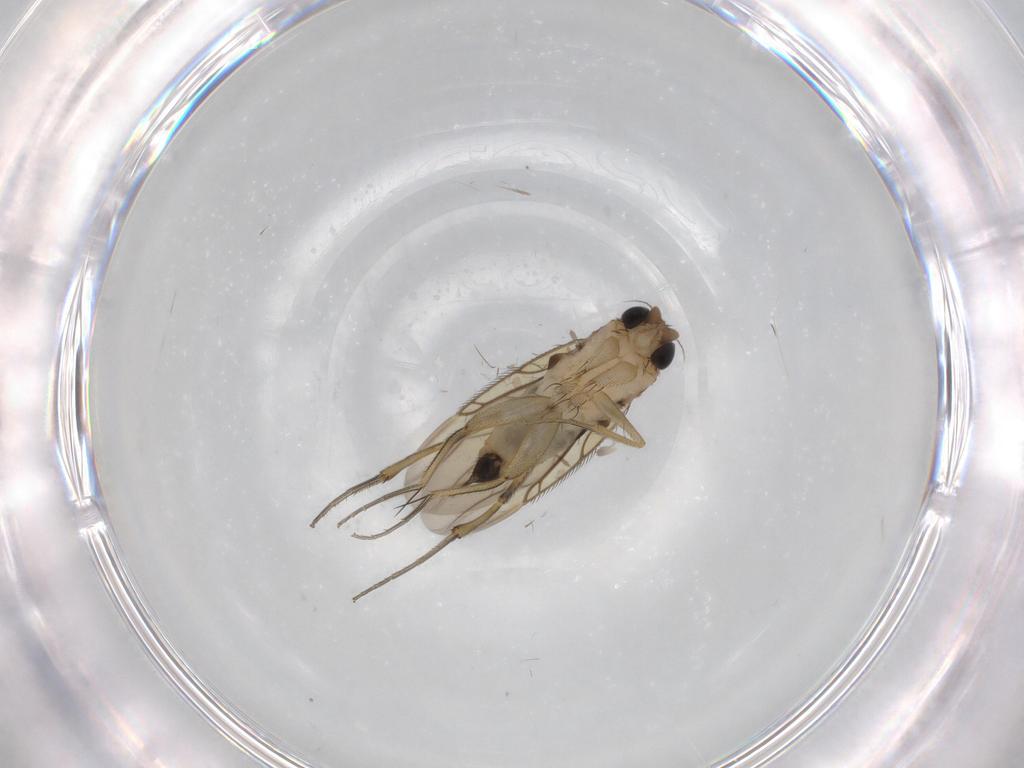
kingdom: Animalia
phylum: Arthropoda
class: Insecta
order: Diptera
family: Phoridae
